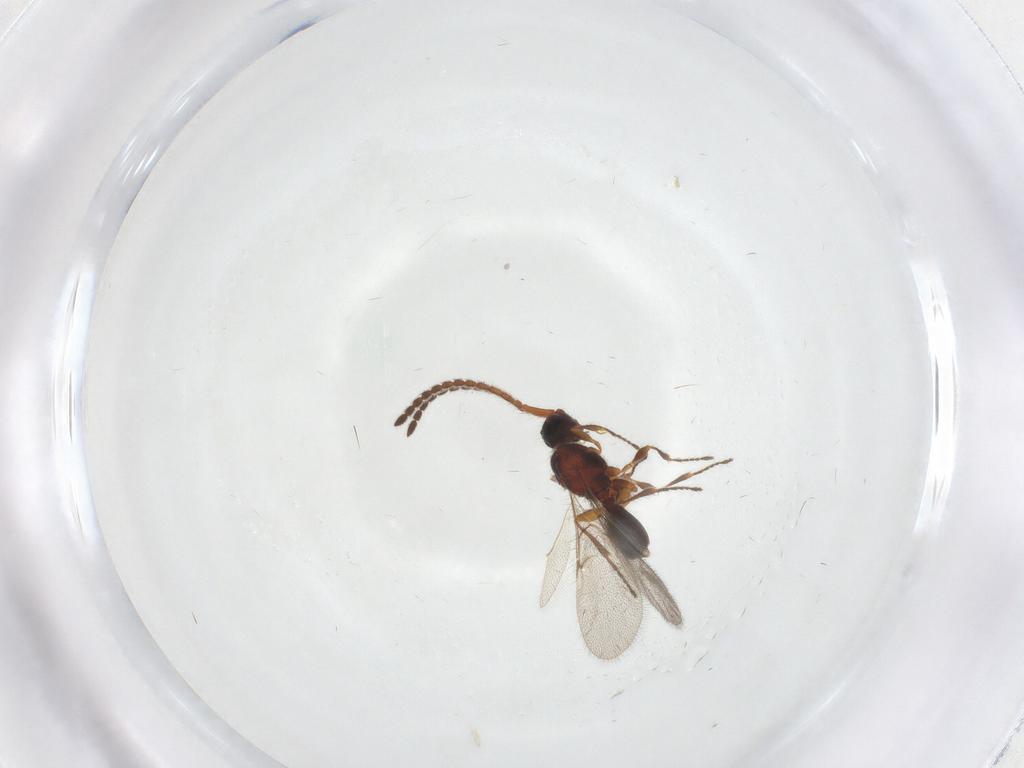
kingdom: Animalia
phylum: Arthropoda
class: Insecta
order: Hymenoptera
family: Diapriidae
